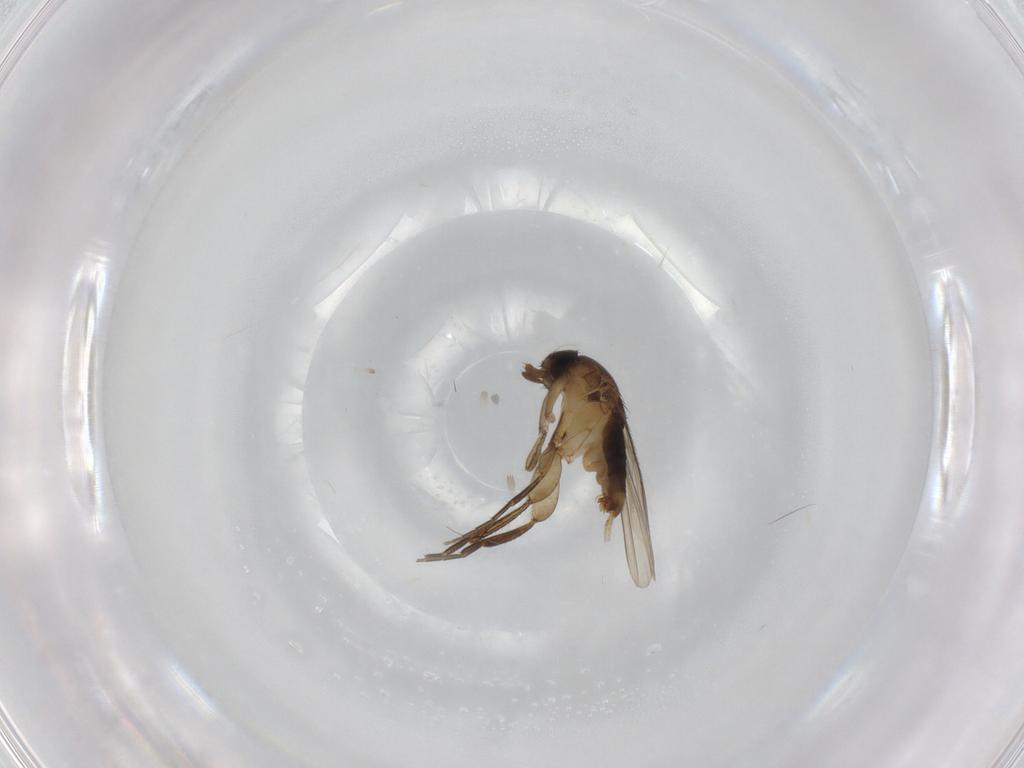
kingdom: Animalia
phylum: Arthropoda
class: Insecta
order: Diptera
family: Phoridae
